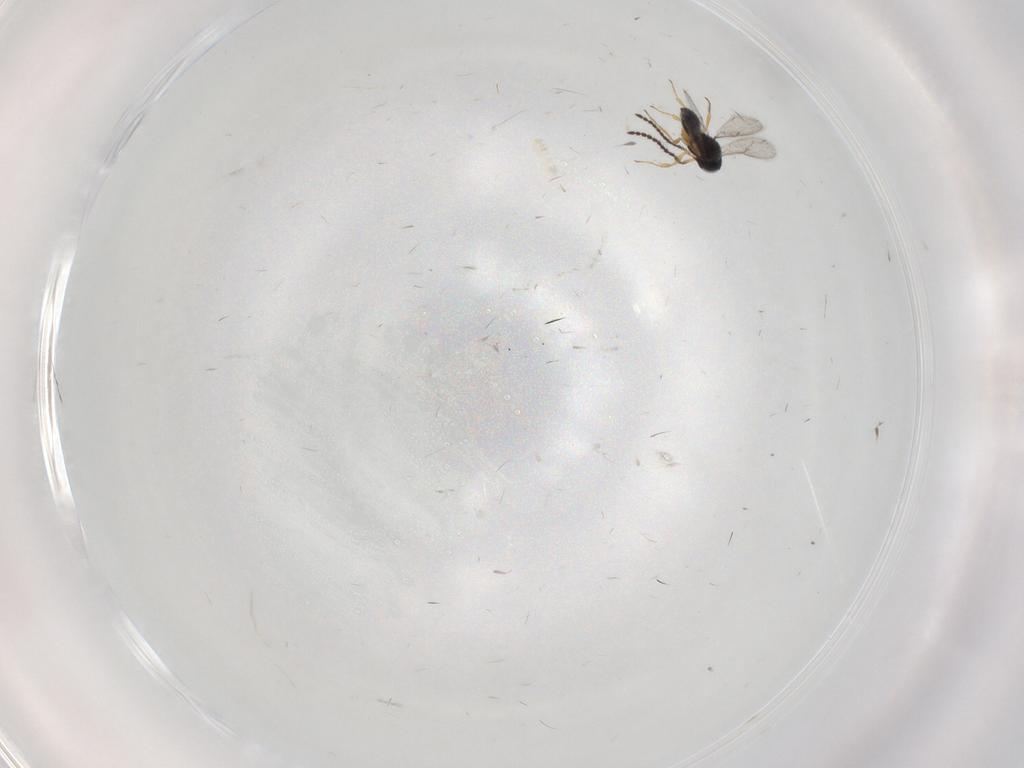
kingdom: Animalia
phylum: Arthropoda
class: Insecta
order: Hymenoptera
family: Scelionidae
